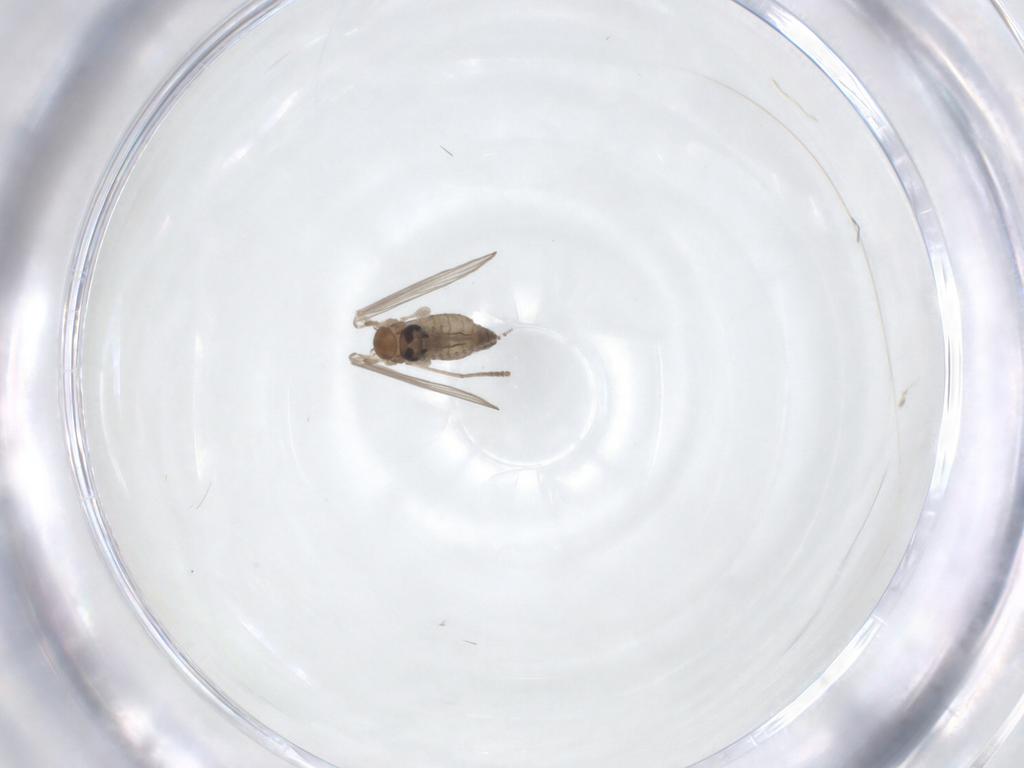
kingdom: Animalia
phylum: Arthropoda
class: Insecta
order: Diptera
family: Psychodidae
